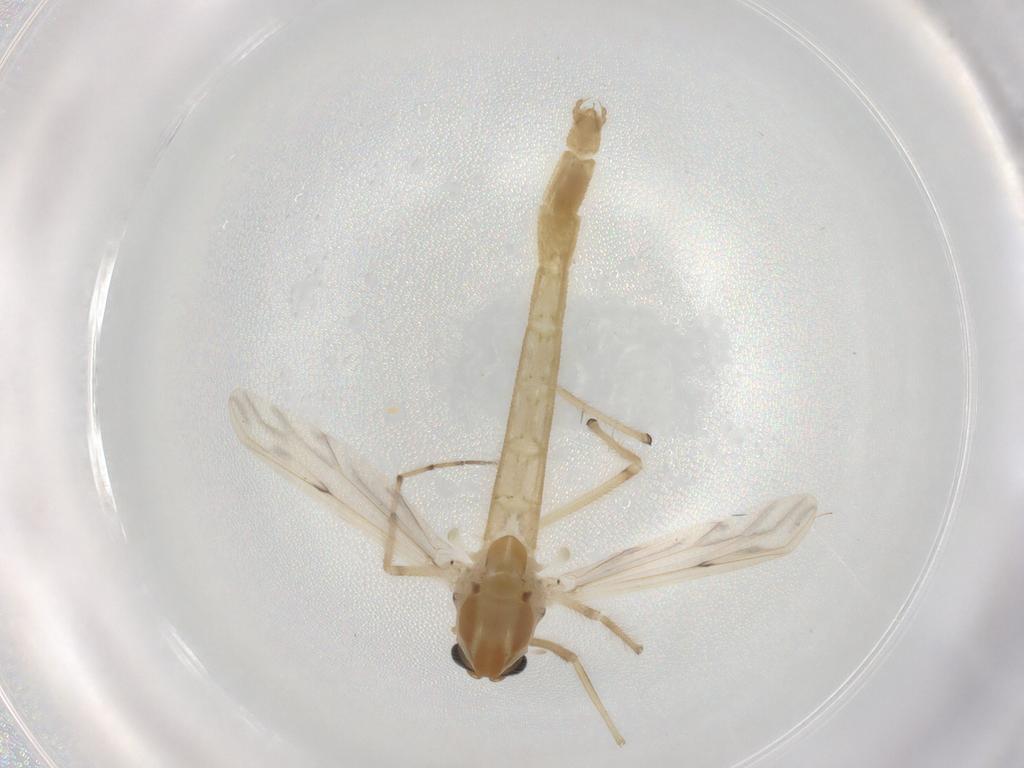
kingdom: Animalia
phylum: Arthropoda
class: Insecta
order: Diptera
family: Chironomidae
